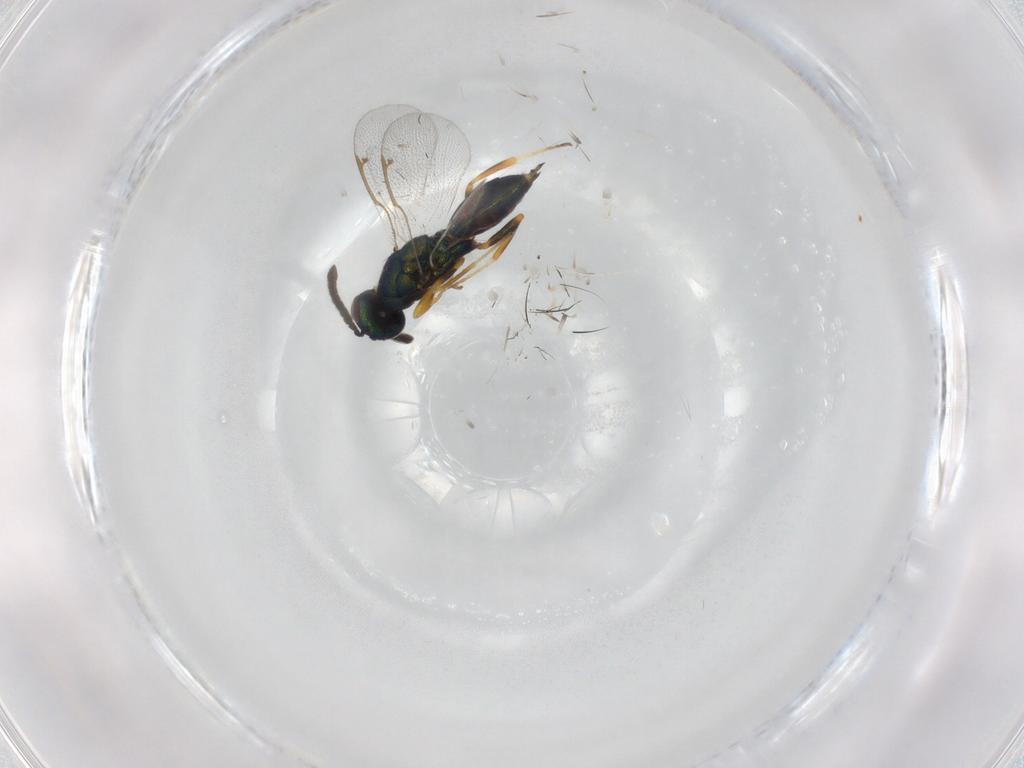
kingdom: Animalia
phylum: Arthropoda
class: Insecta
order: Hymenoptera
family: Torymidae
